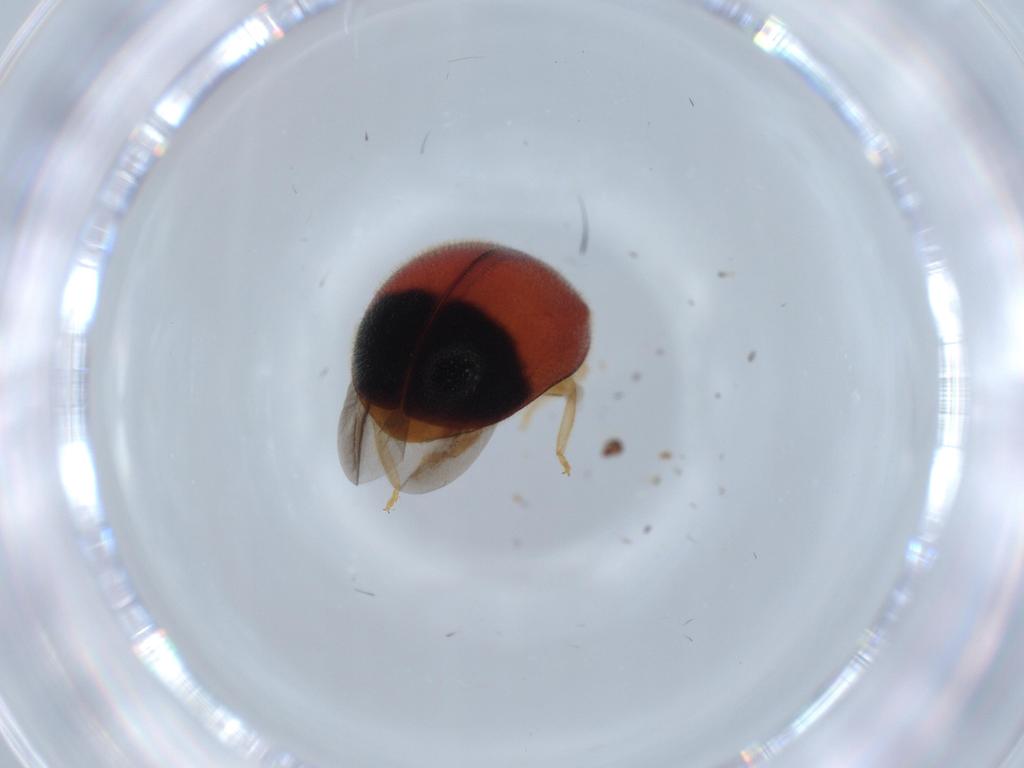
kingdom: Animalia
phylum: Arthropoda
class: Insecta
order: Coleoptera
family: Coccinellidae
